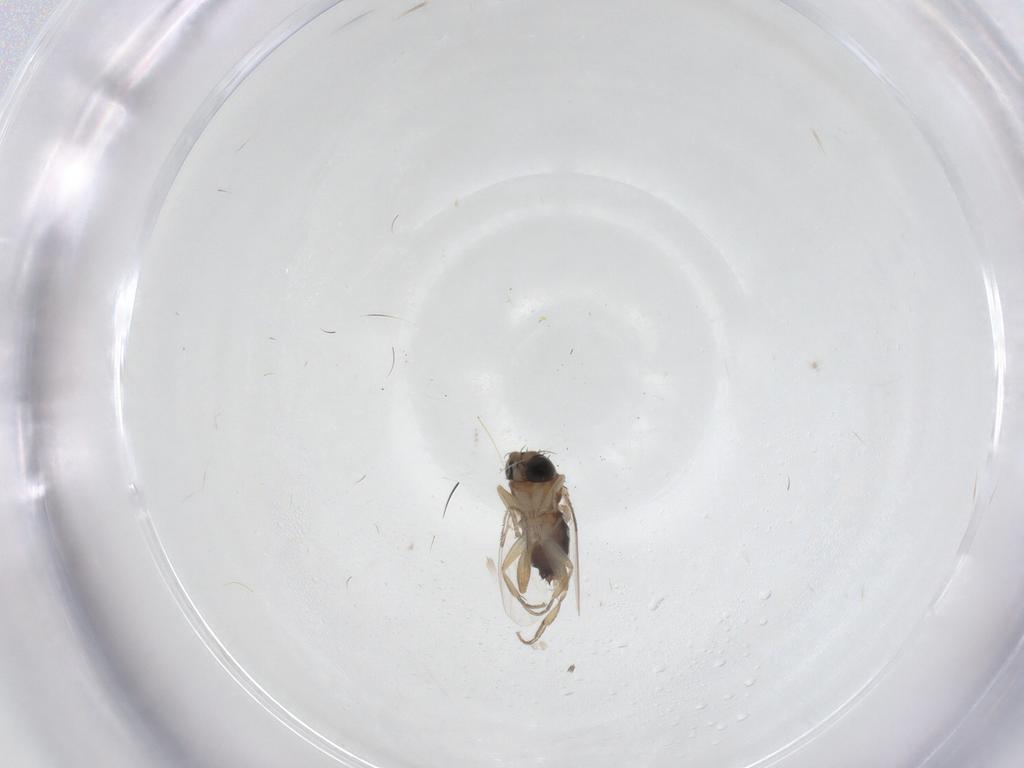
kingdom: Animalia
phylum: Arthropoda
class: Insecta
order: Diptera
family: Phoridae
